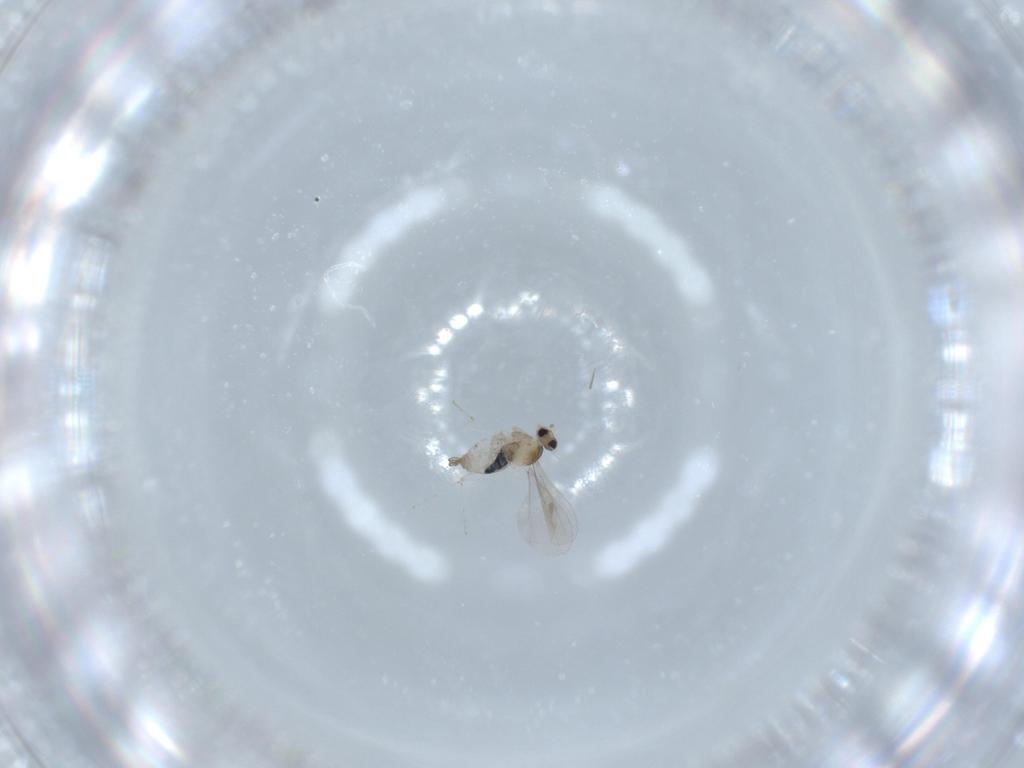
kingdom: Animalia
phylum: Arthropoda
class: Insecta
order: Diptera
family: Cecidomyiidae
